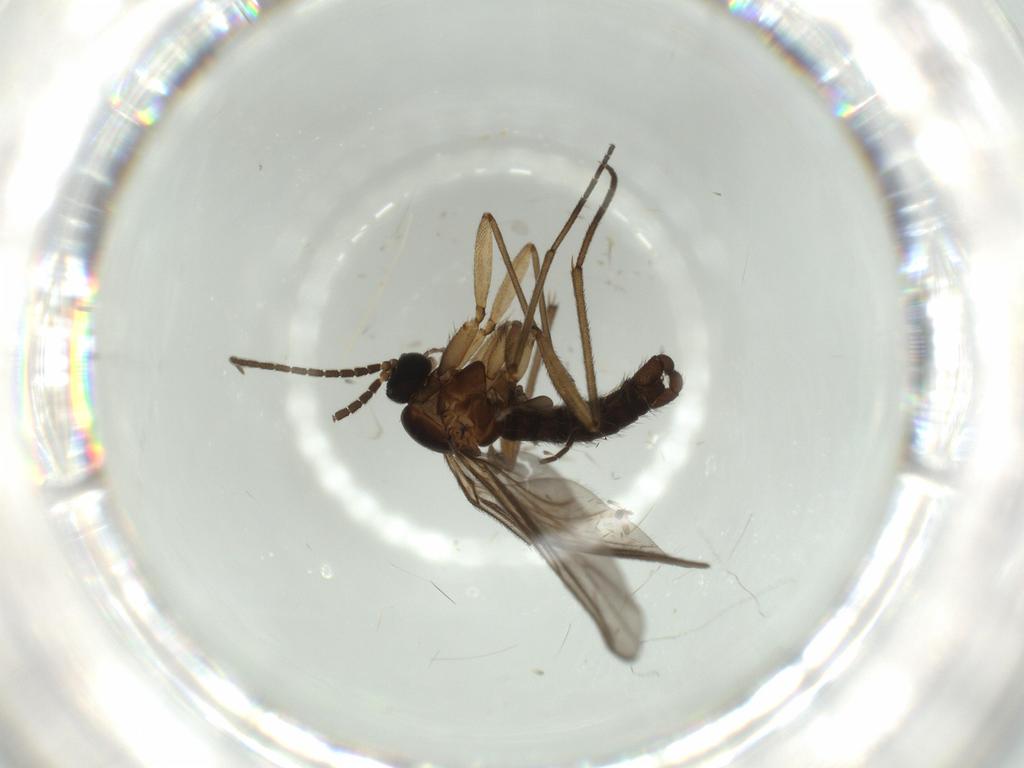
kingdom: Animalia
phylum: Arthropoda
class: Insecta
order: Diptera
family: Sciaridae
